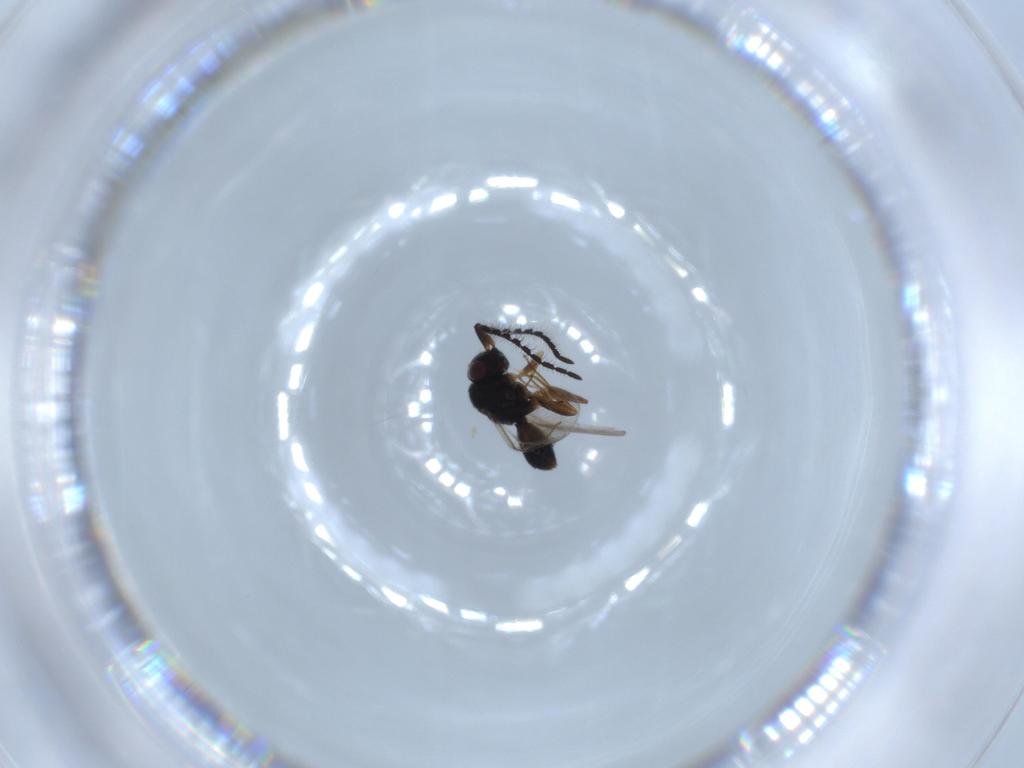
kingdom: Animalia
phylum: Arthropoda
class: Insecta
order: Hymenoptera
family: Megaspilidae
